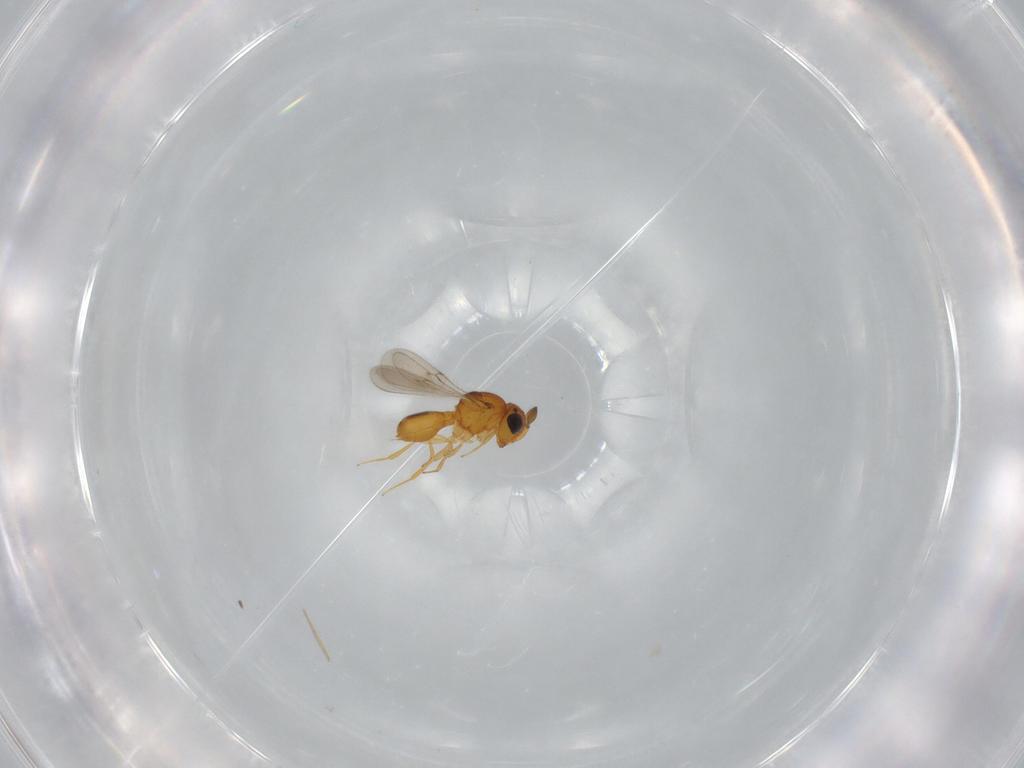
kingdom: Animalia
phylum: Arthropoda
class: Insecta
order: Hymenoptera
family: Scelionidae
